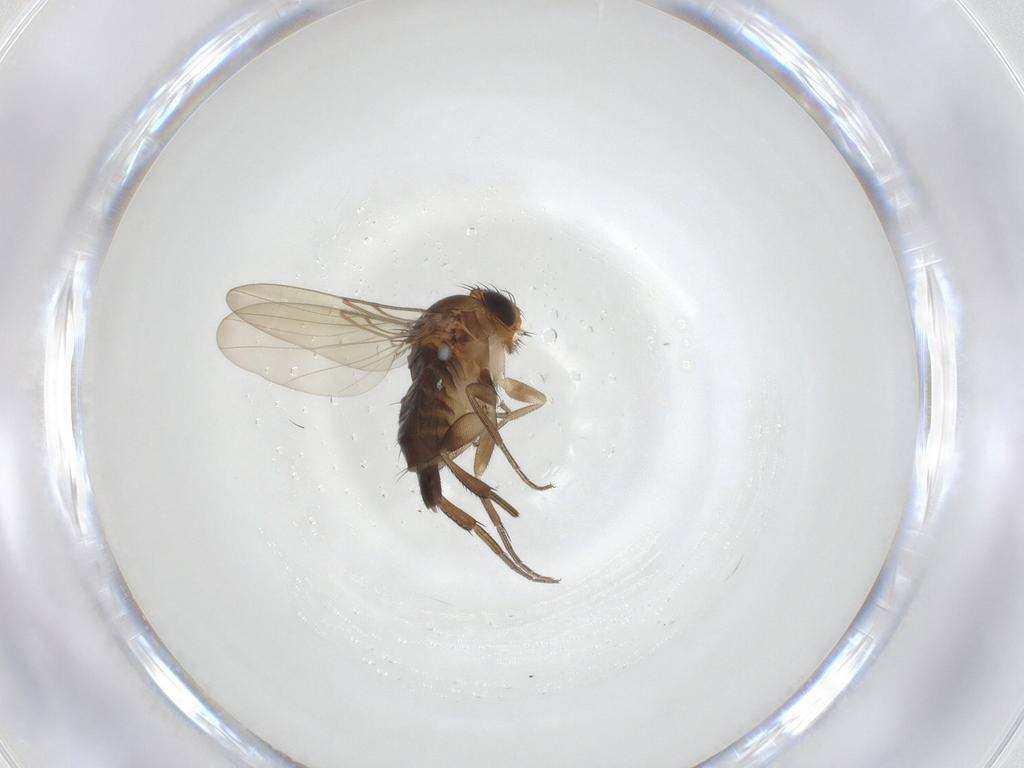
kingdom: Animalia
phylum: Arthropoda
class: Insecta
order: Diptera
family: Phoridae
